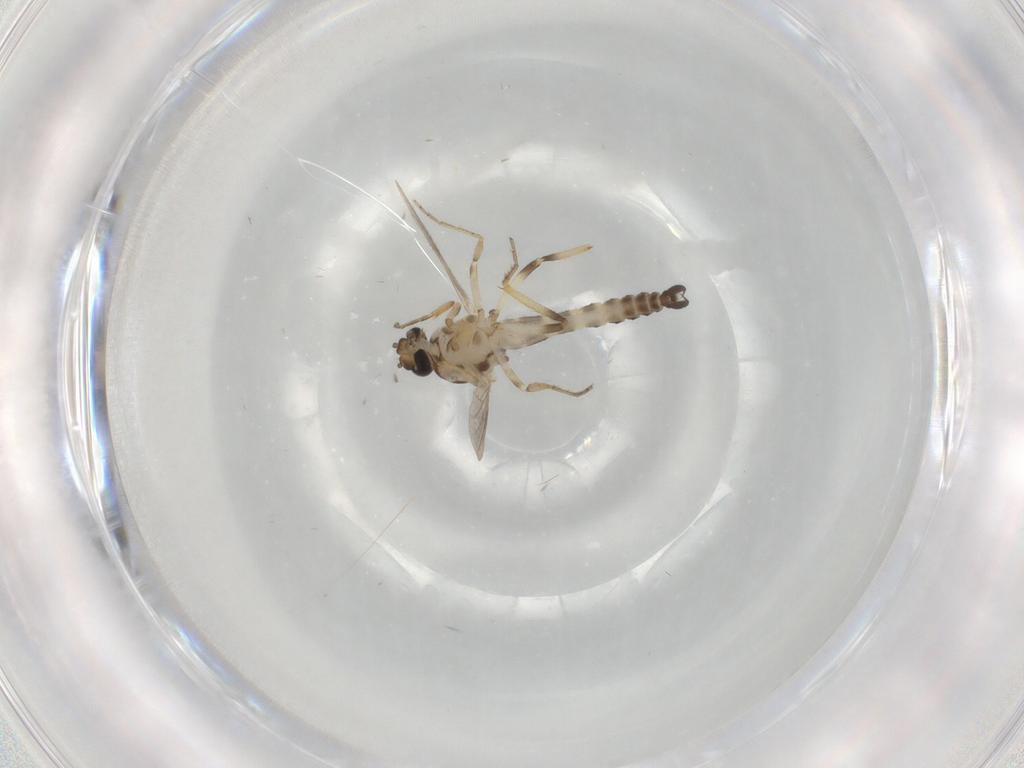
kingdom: Animalia
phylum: Arthropoda
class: Insecta
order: Diptera
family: Ceratopogonidae
